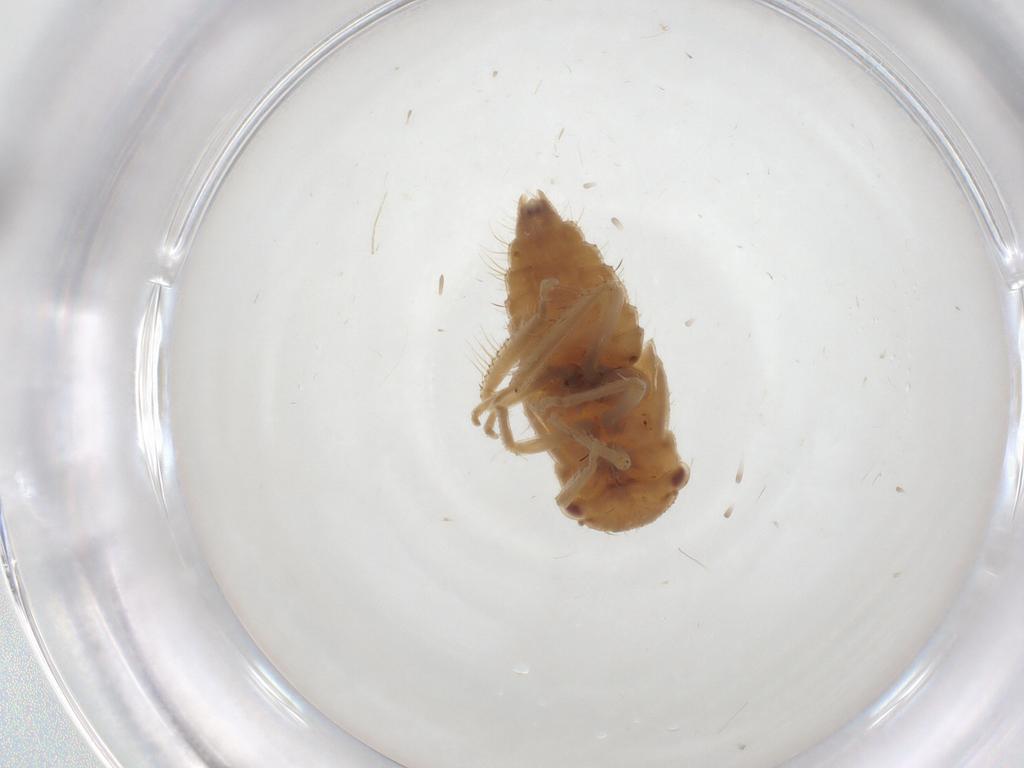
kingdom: Animalia
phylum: Arthropoda
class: Insecta
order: Hemiptera
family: Cicadellidae
